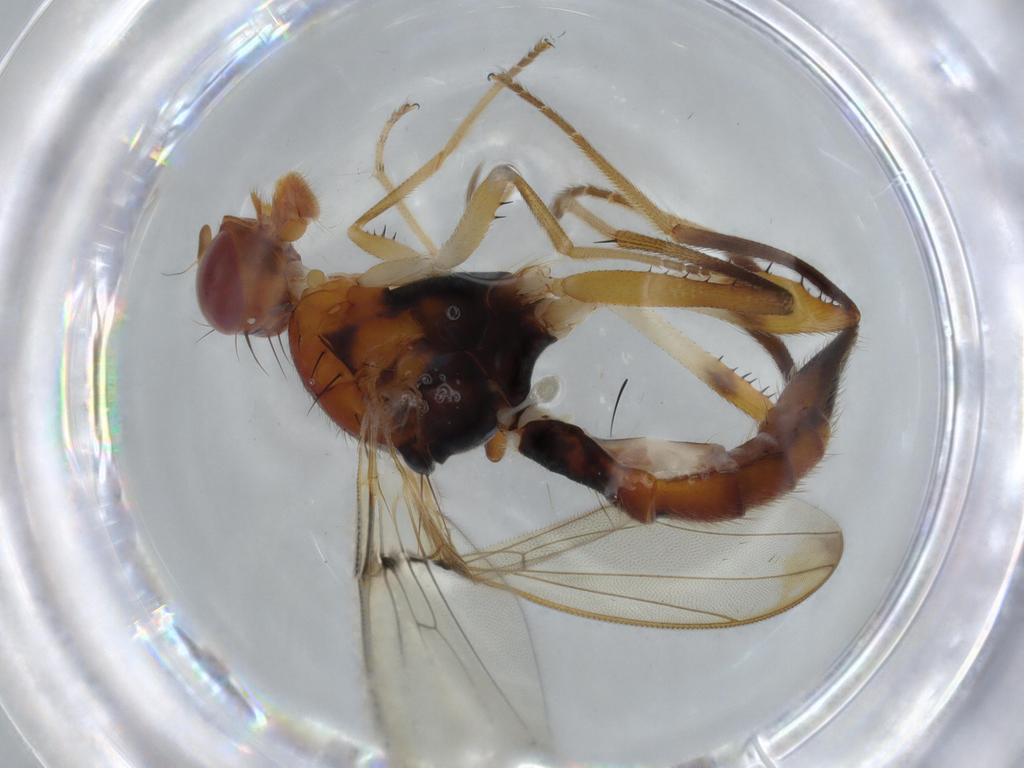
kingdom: Animalia
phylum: Arthropoda
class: Insecta
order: Diptera
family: Richardiidae
